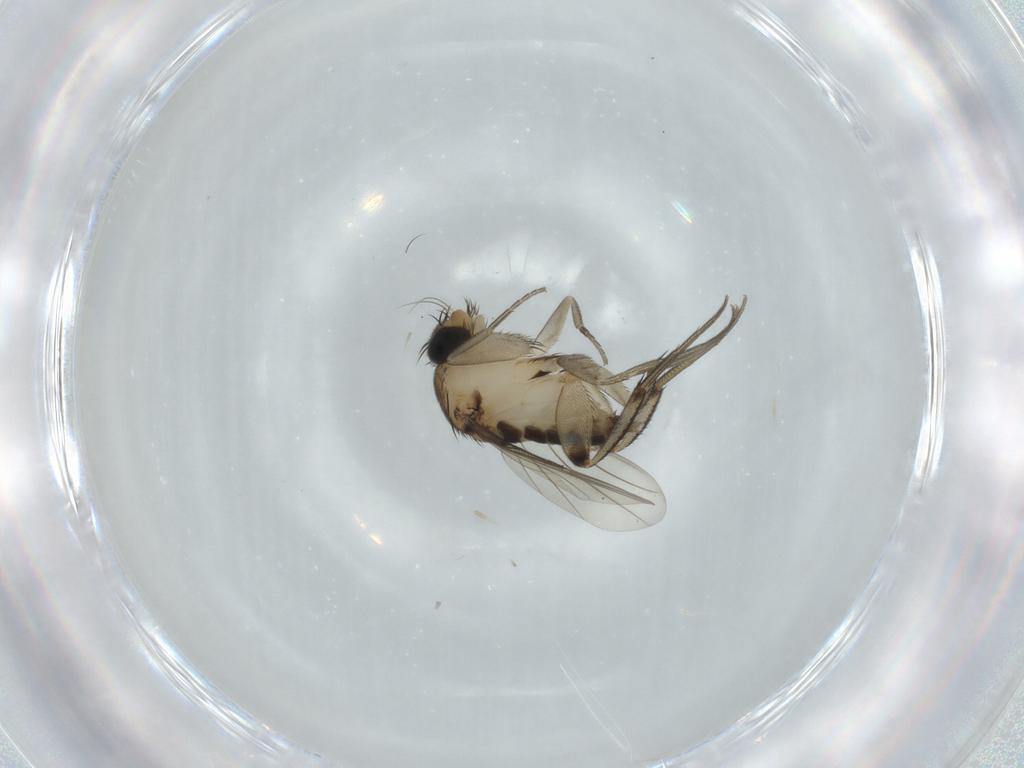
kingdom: Animalia
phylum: Arthropoda
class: Insecta
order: Diptera
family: Phoridae
